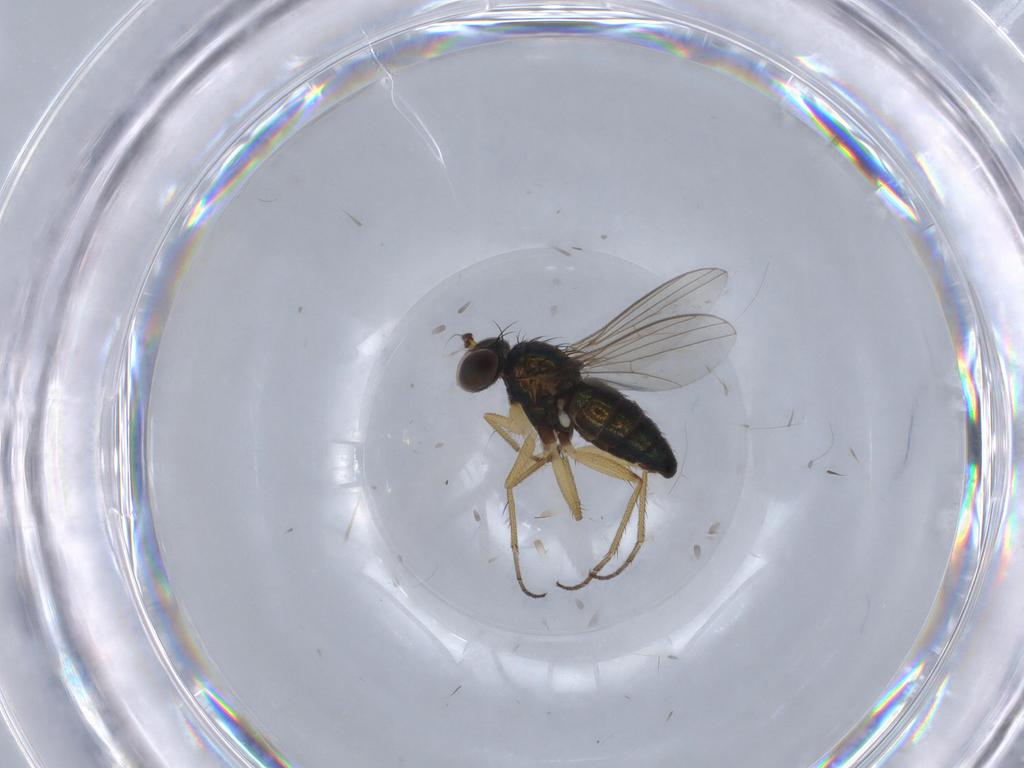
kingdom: Animalia
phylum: Arthropoda
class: Insecta
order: Diptera
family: Dolichopodidae
